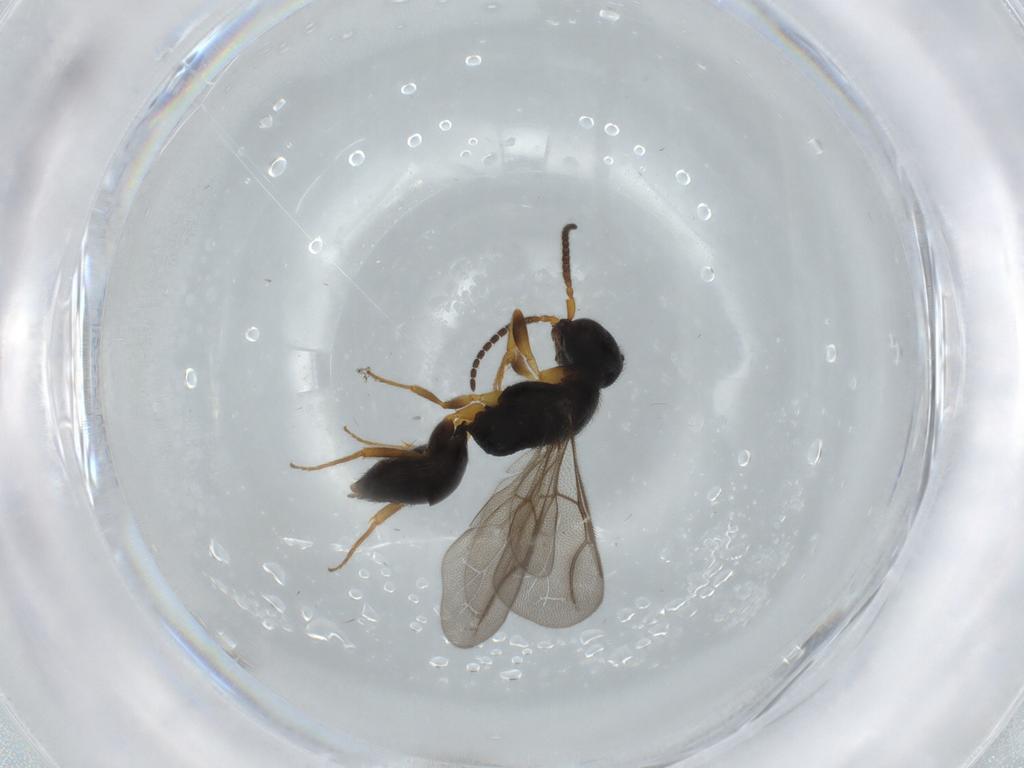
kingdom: Animalia
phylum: Arthropoda
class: Insecta
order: Hymenoptera
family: Bethylidae
